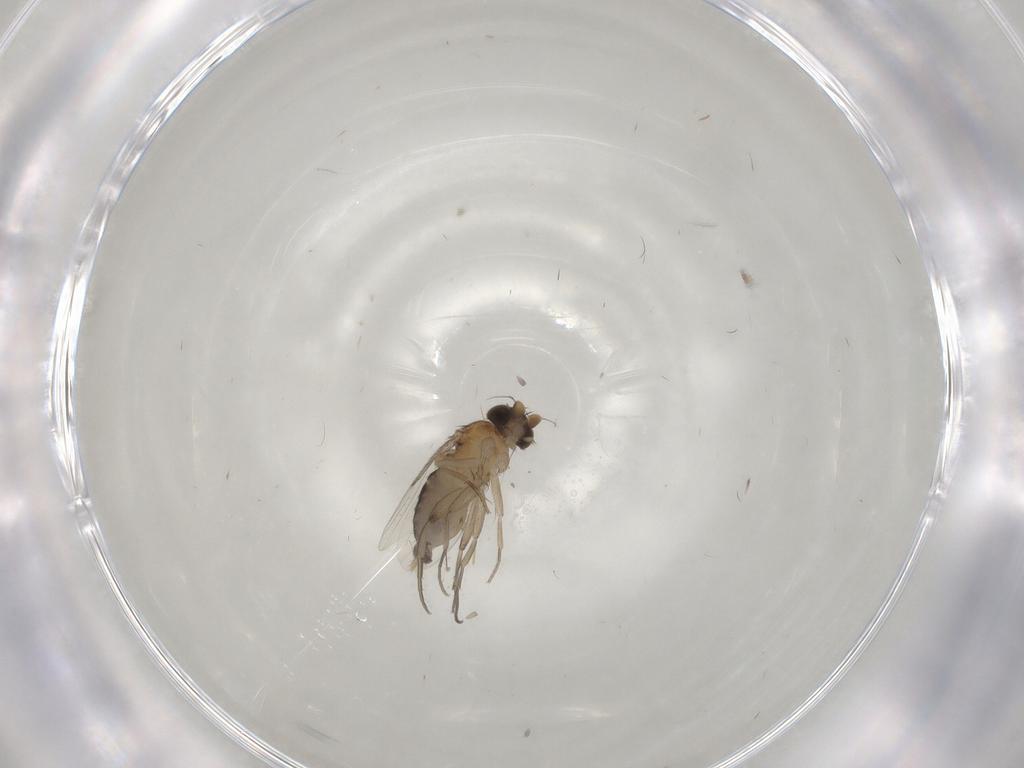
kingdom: Animalia
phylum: Arthropoda
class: Insecta
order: Diptera
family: Phoridae
